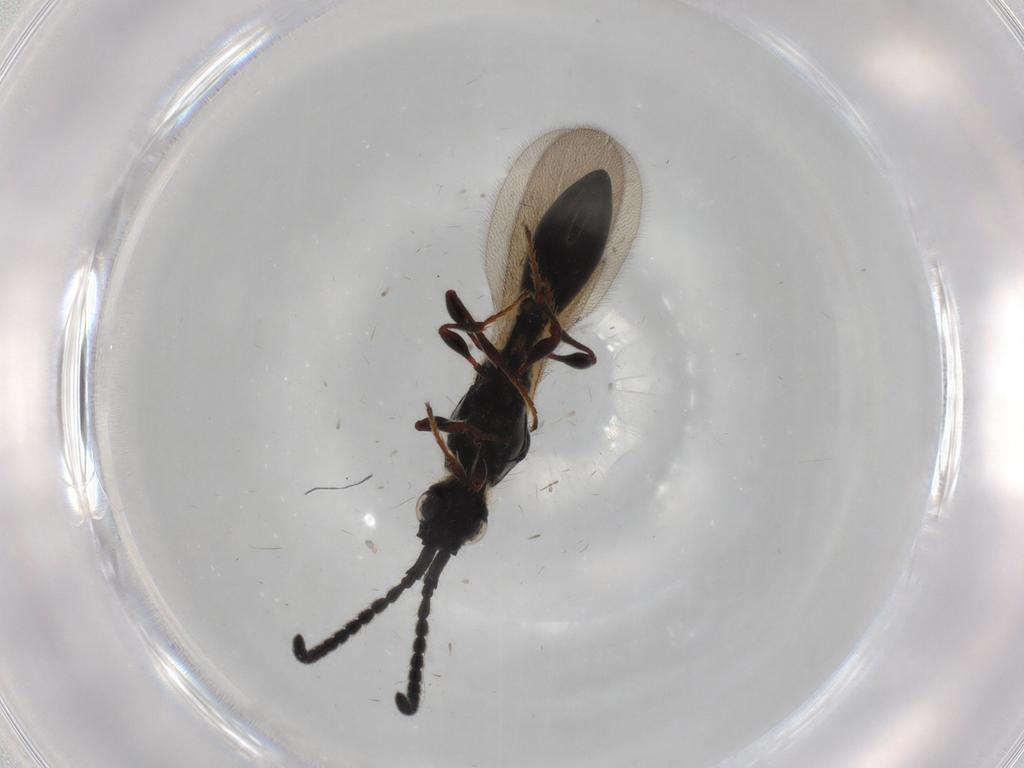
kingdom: Animalia
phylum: Arthropoda
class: Insecta
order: Hymenoptera
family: Diapriidae
